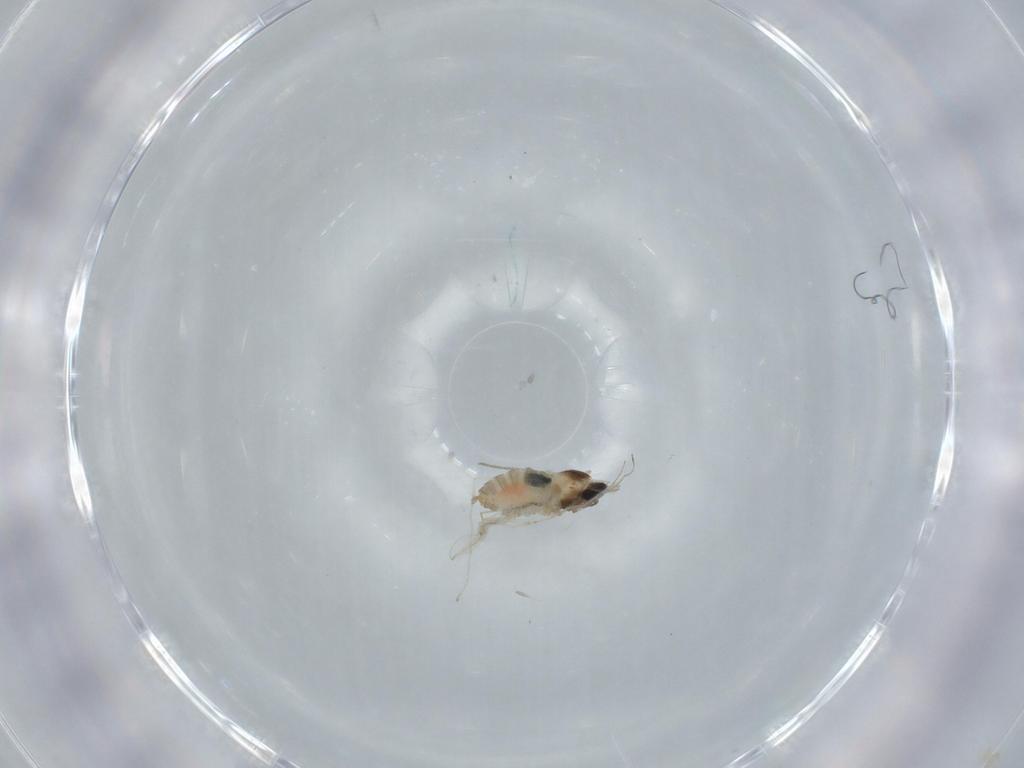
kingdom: Animalia
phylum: Arthropoda
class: Insecta
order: Diptera
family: Cecidomyiidae
